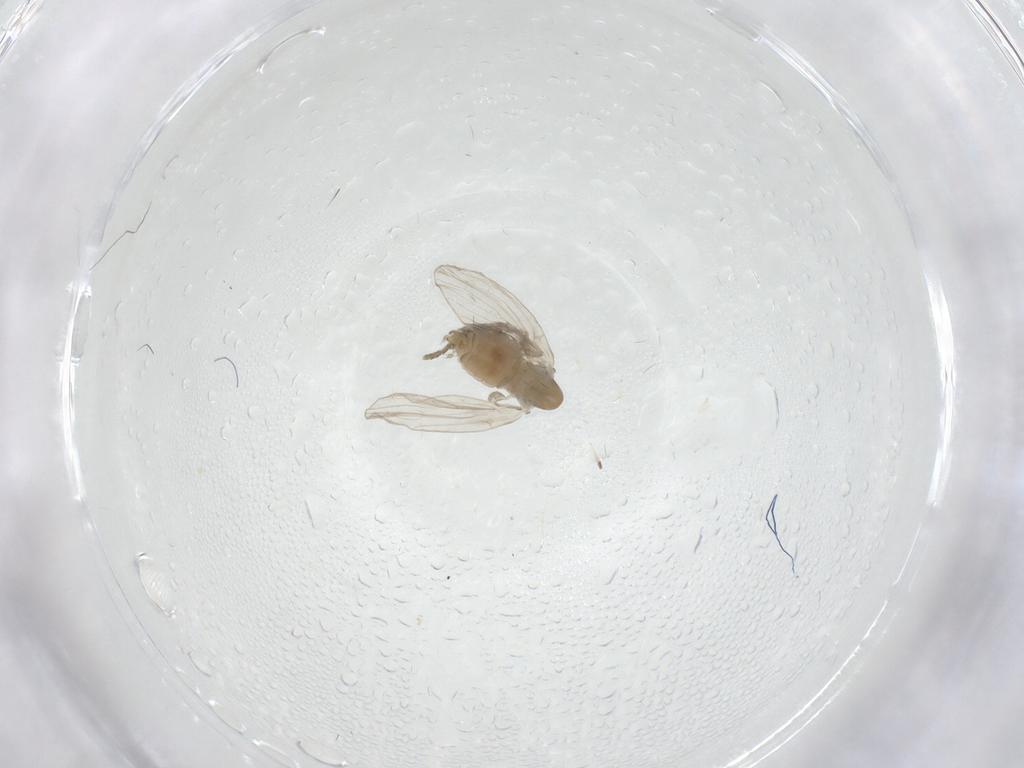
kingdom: Animalia
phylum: Arthropoda
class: Insecta
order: Diptera
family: Psychodidae
